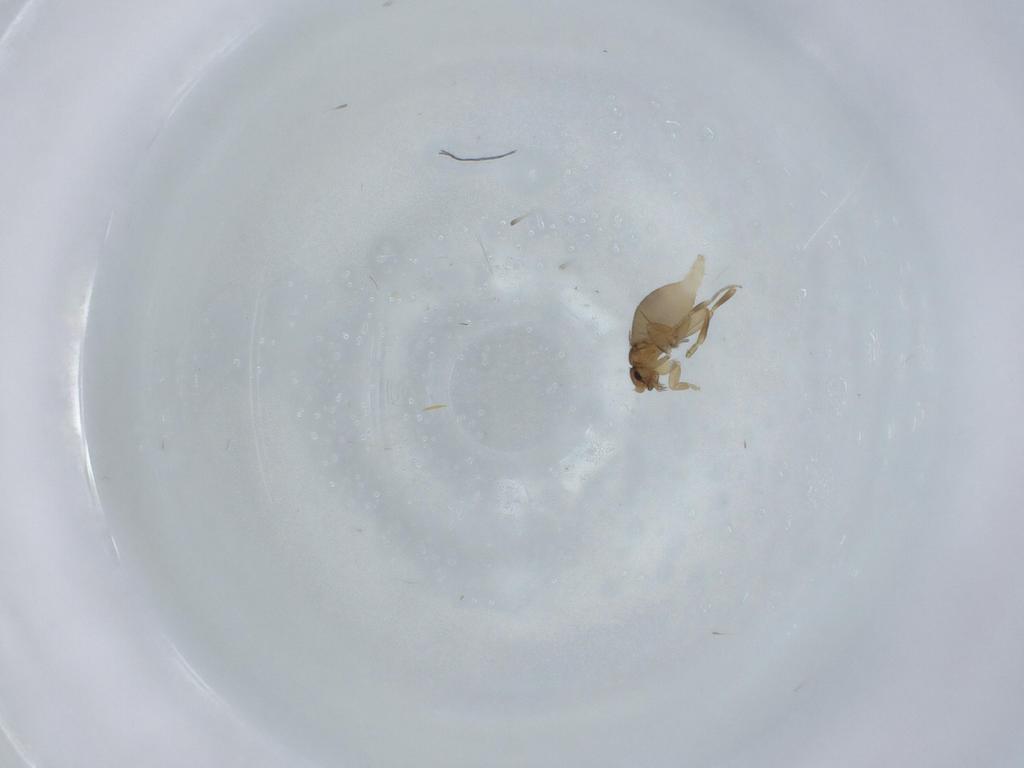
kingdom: Animalia
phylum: Arthropoda
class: Insecta
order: Diptera
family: Phoridae
